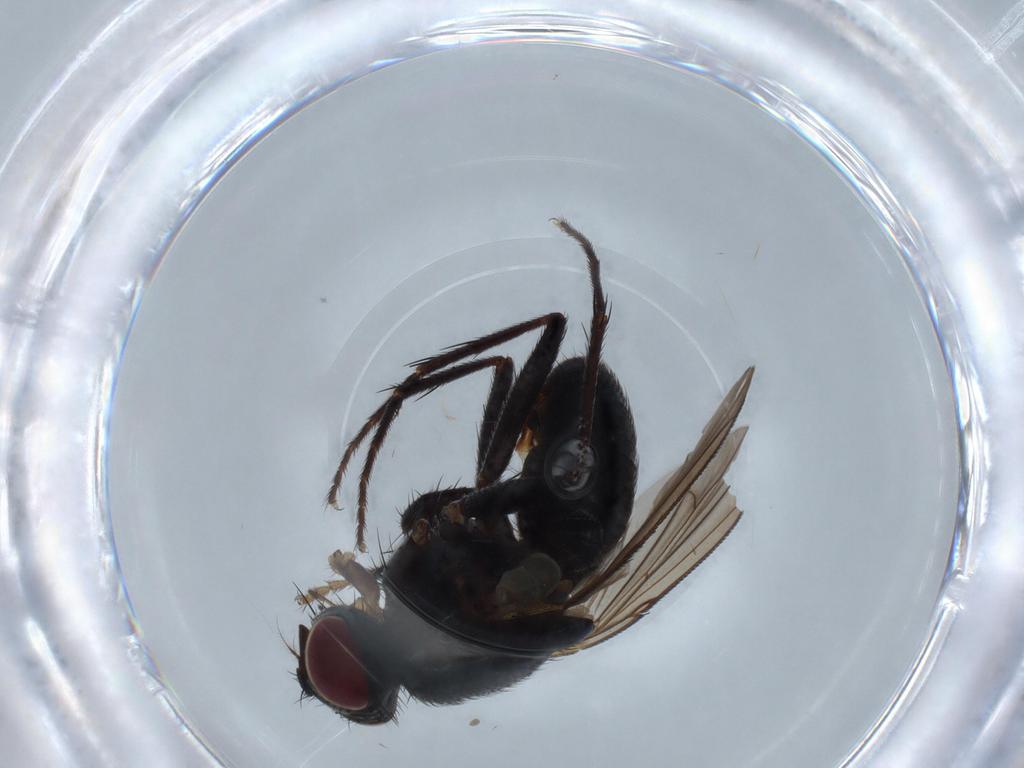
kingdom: Animalia
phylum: Arthropoda
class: Insecta
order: Diptera
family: Muscidae
